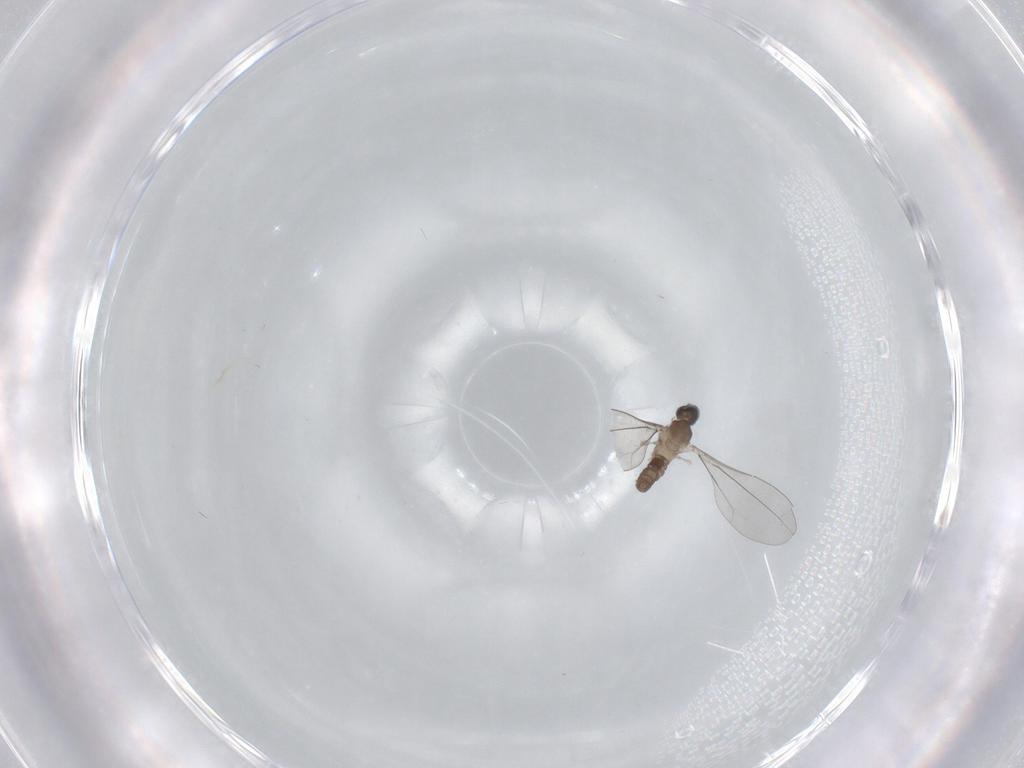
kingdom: Animalia
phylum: Arthropoda
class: Insecta
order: Diptera
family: Cecidomyiidae
